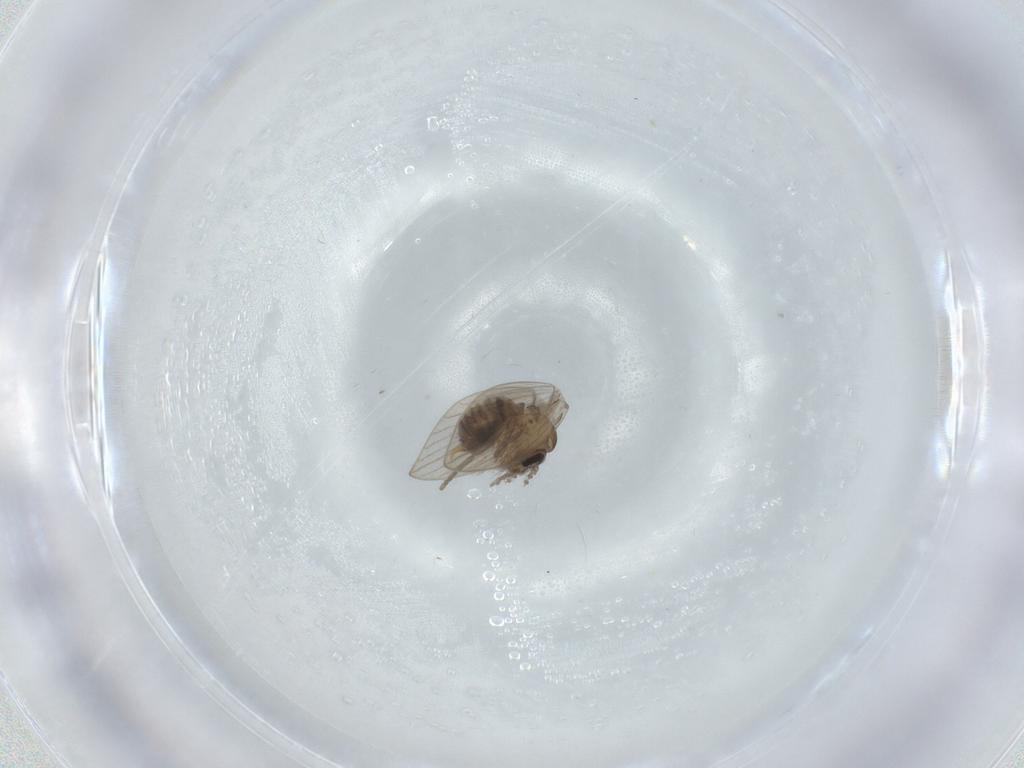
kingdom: Animalia
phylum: Arthropoda
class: Insecta
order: Diptera
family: Psychodidae
